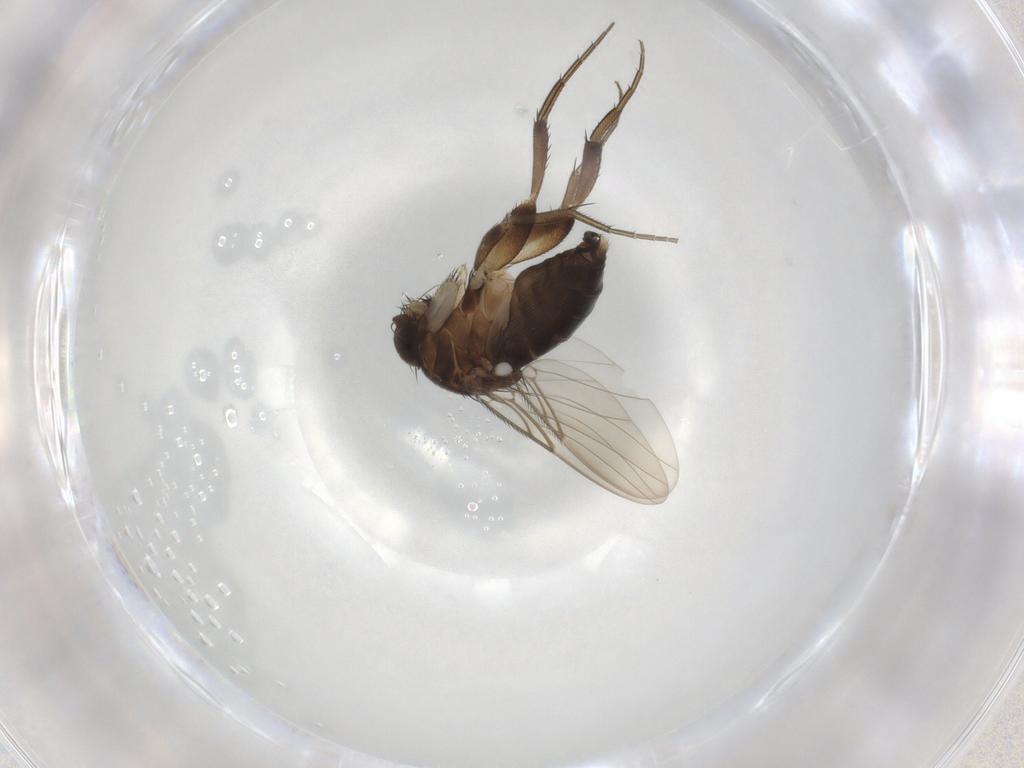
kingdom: Animalia
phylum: Arthropoda
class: Insecta
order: Diptera
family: Phoridae
